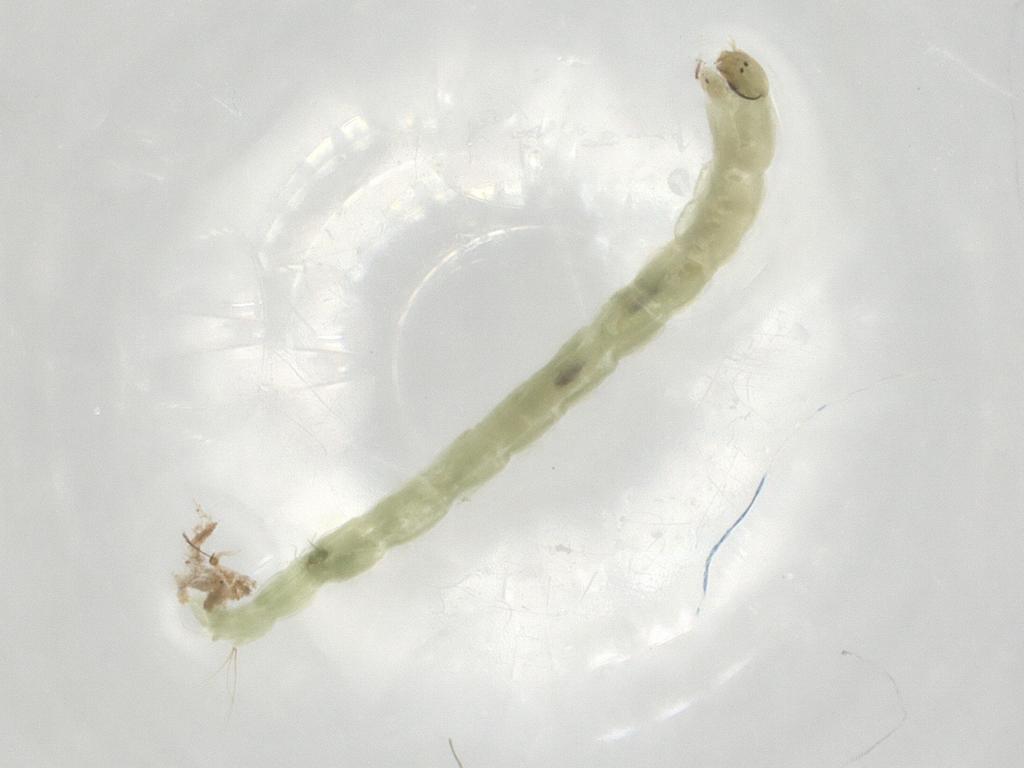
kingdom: Animalia
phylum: Arthropoda
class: Insecta
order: Diptera
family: Chironomidae
